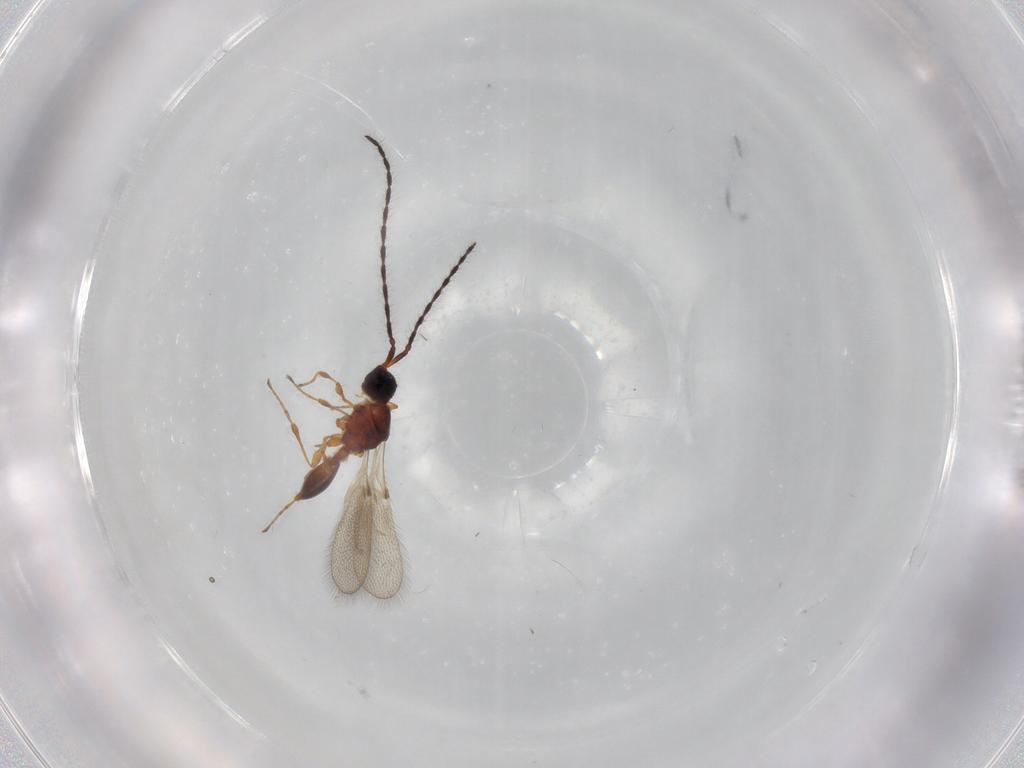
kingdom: Animalia
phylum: Arthropoda
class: Insecta
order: Hymenoptera
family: Diapriidae
